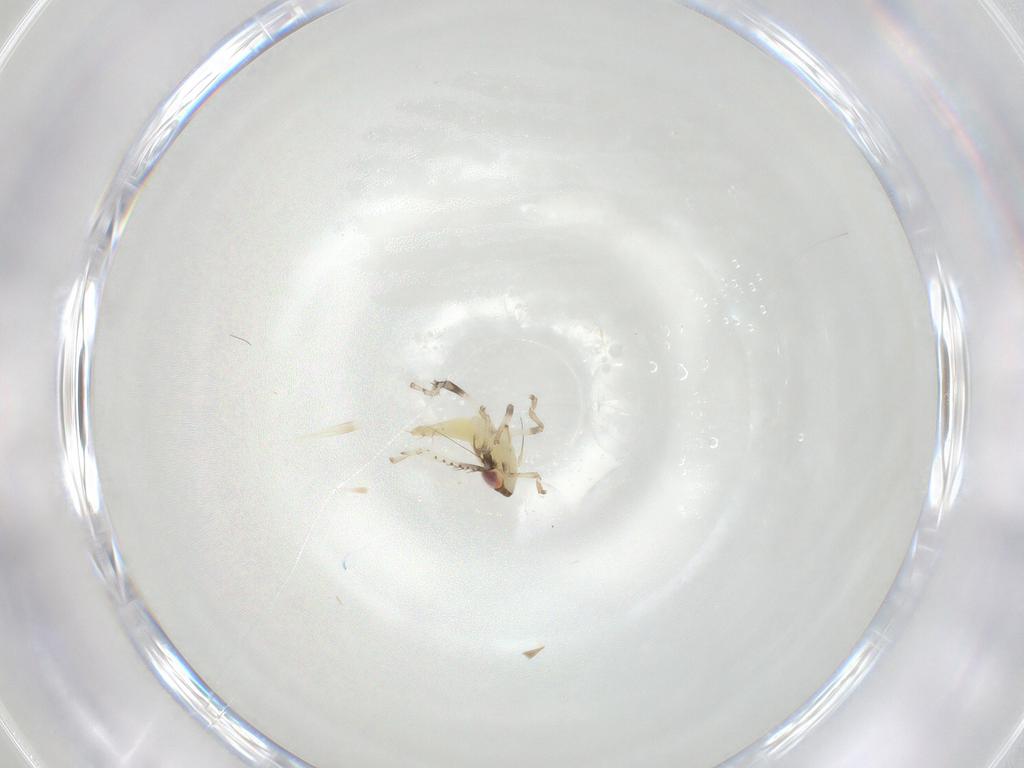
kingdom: Animalia
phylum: Arthropoda
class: Insecta
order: Hemiptera
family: Cicadellidae
